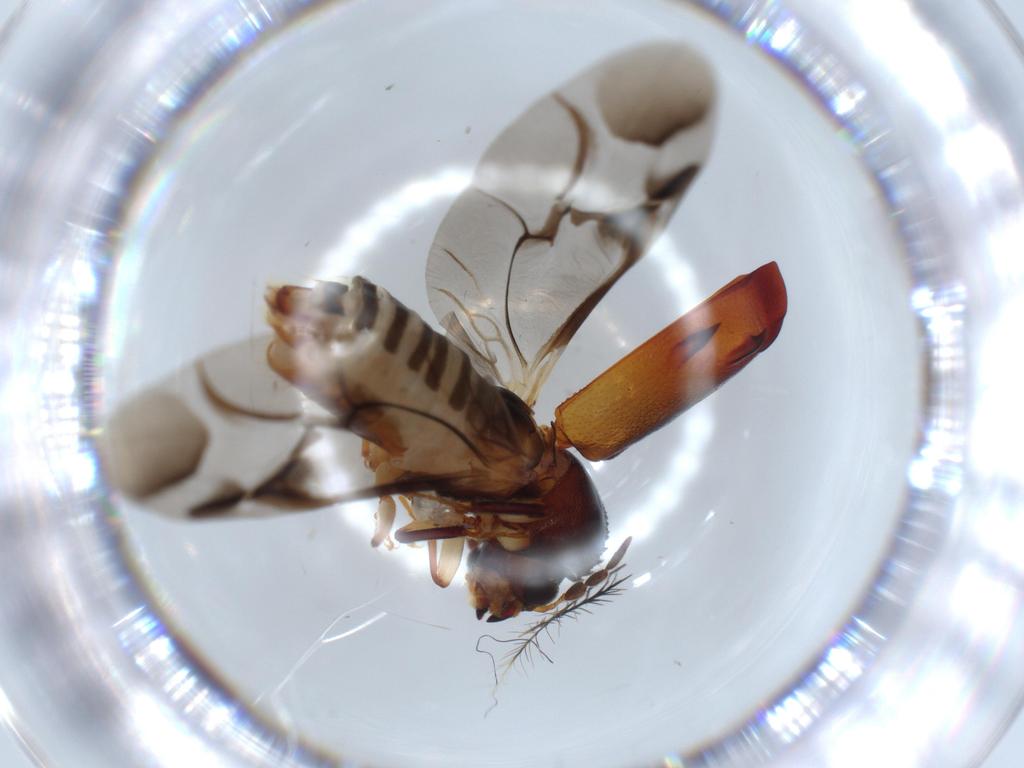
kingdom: Animalia
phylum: Arthropoda
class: Insecta
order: Coleoptera
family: Bostrichidae
